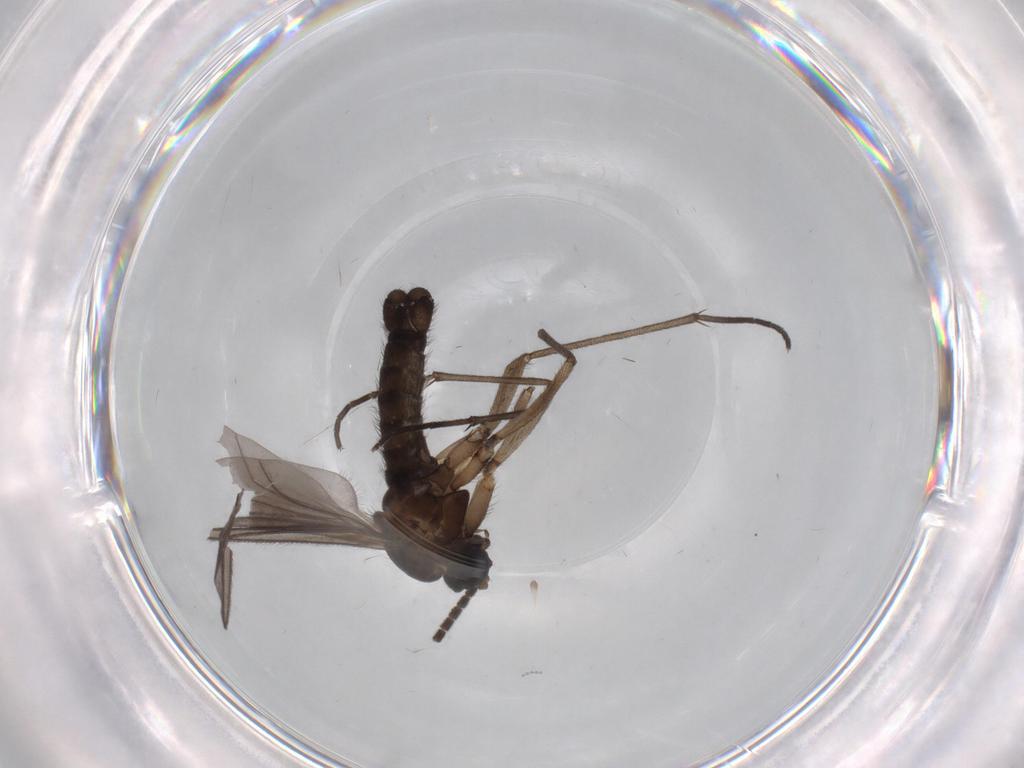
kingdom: Animalia
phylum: Arthropoda
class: Insecta
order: Diptera
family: Sciaridae
